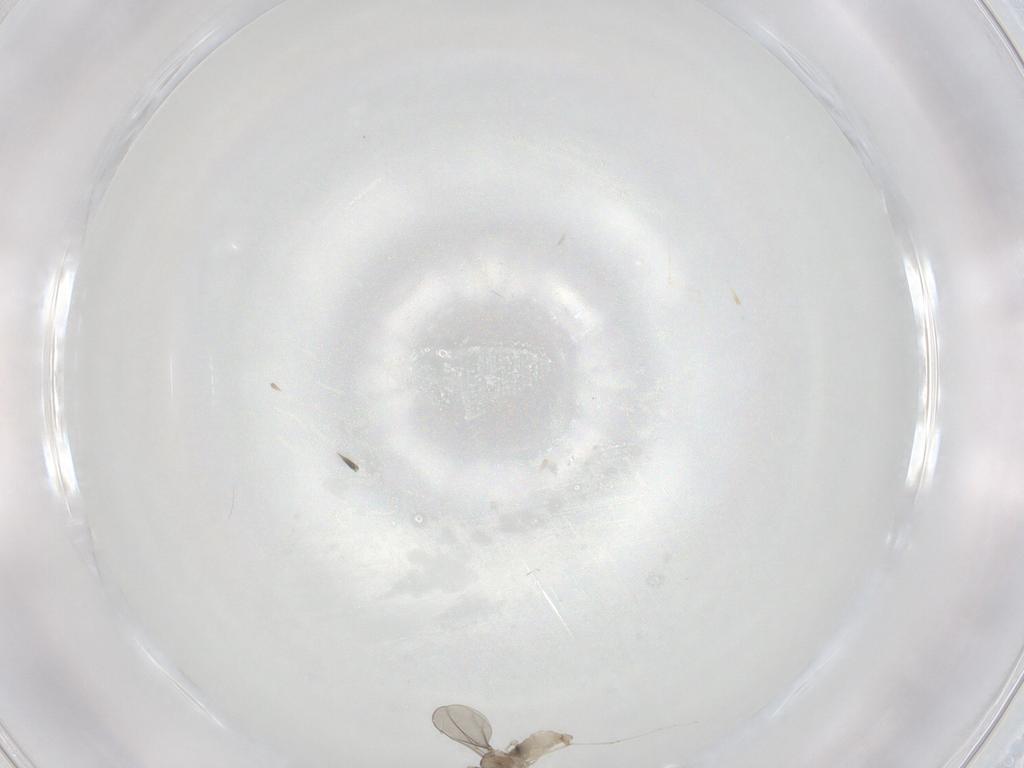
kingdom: Animalia
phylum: Arthropoda
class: Insecta
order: Diptera
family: Cecidomyiidae
